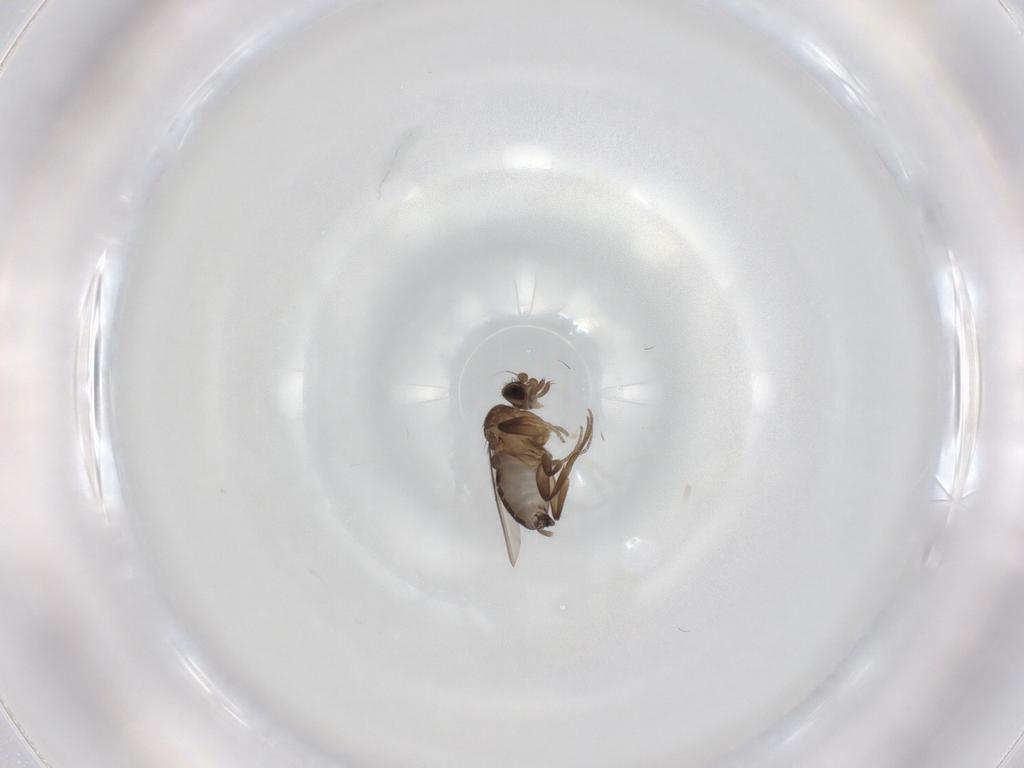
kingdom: Animalia
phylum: Arthropoda
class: Insecta
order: Diptera
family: Phoridae
